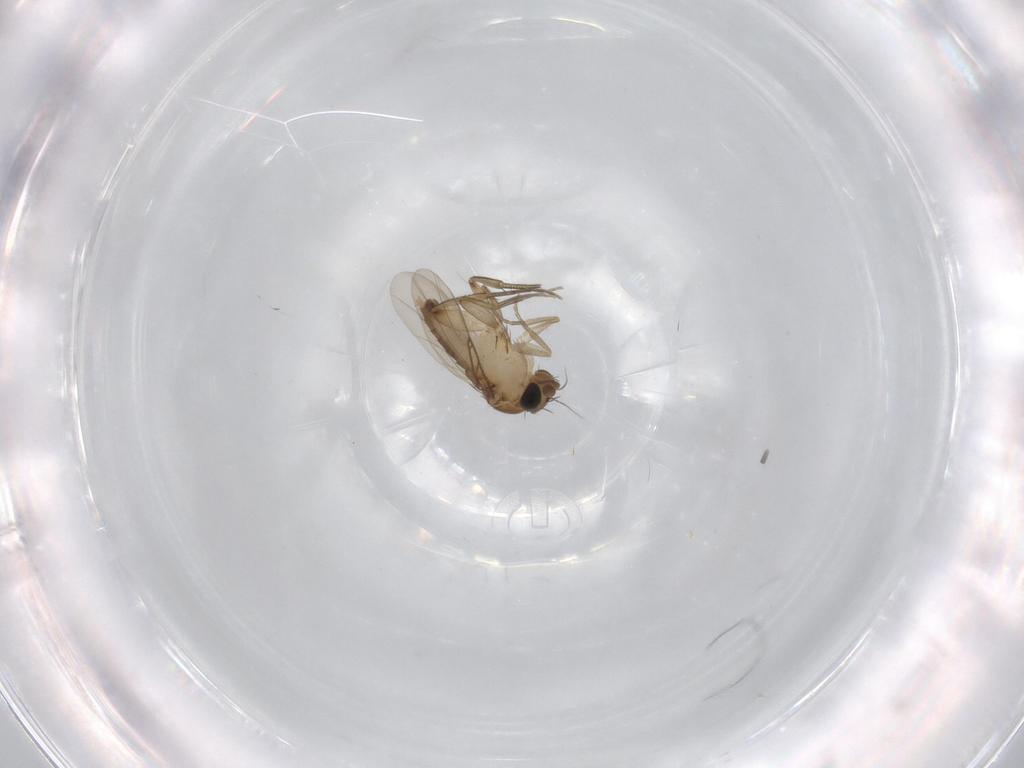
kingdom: Animalia
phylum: Arthropoda
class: Insecta
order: Diptera
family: Phoridae
